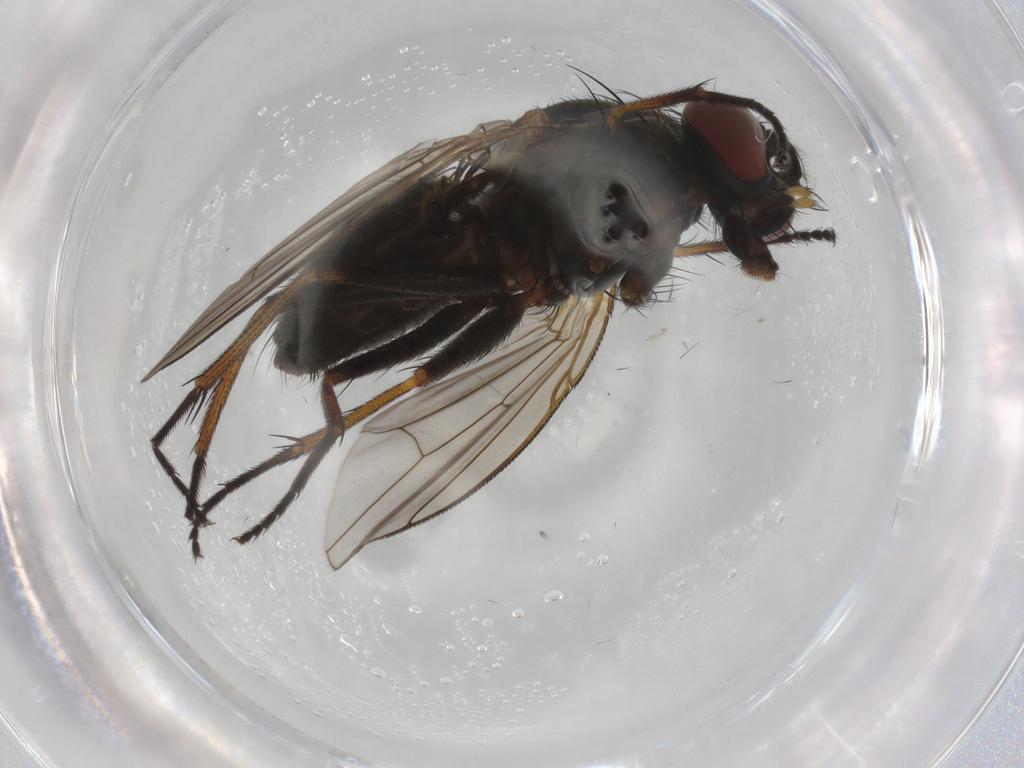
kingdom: Animalia
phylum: Arthropoda
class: Insecta
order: Diptera
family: Muscidae
